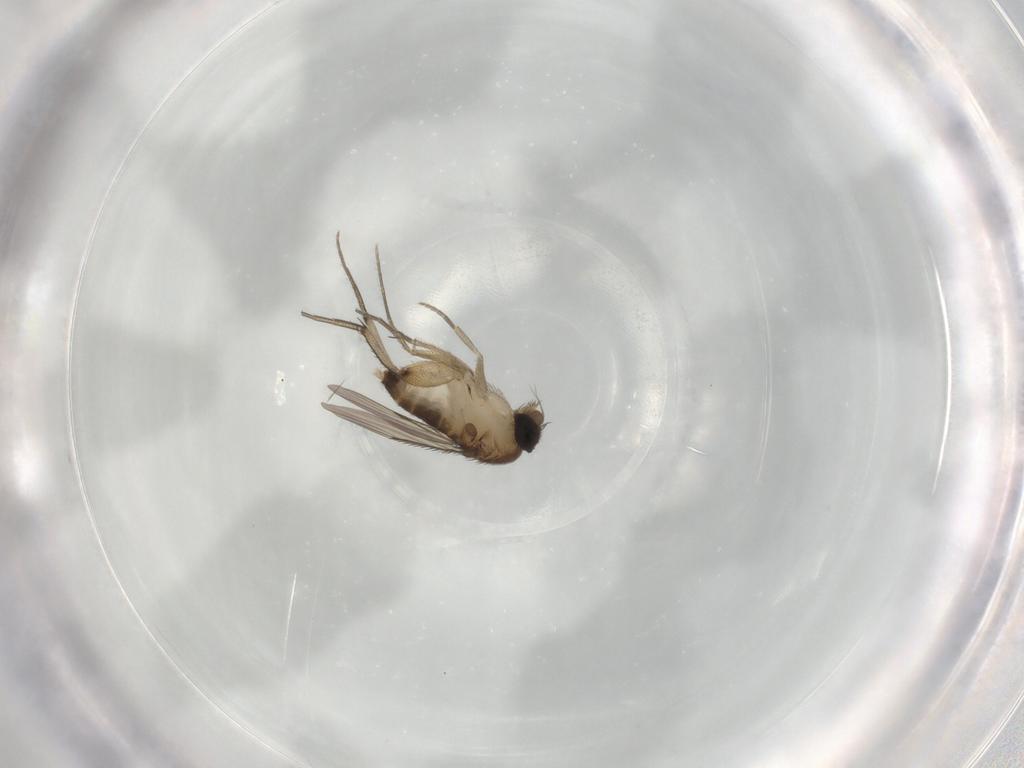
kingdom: Animalia
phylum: Arthropoda
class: Insecta
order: Diptera
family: Phoridae
